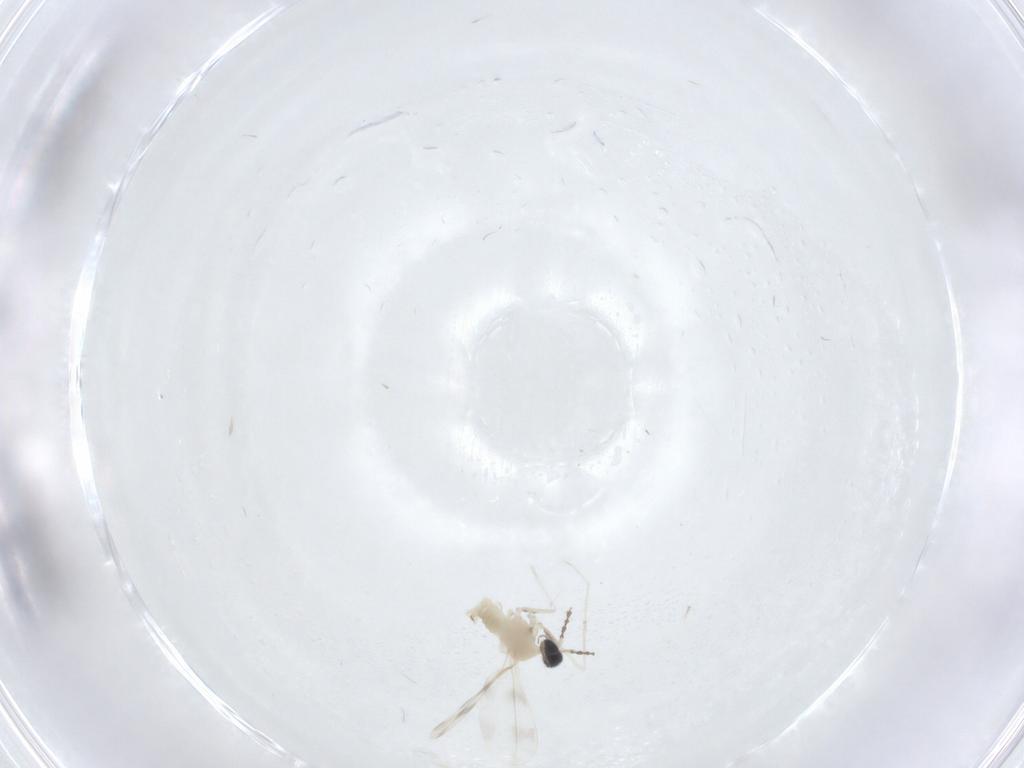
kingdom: Animalia
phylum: Arthropoda
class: Insecta
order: Diptera
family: Cecidomyiidae
